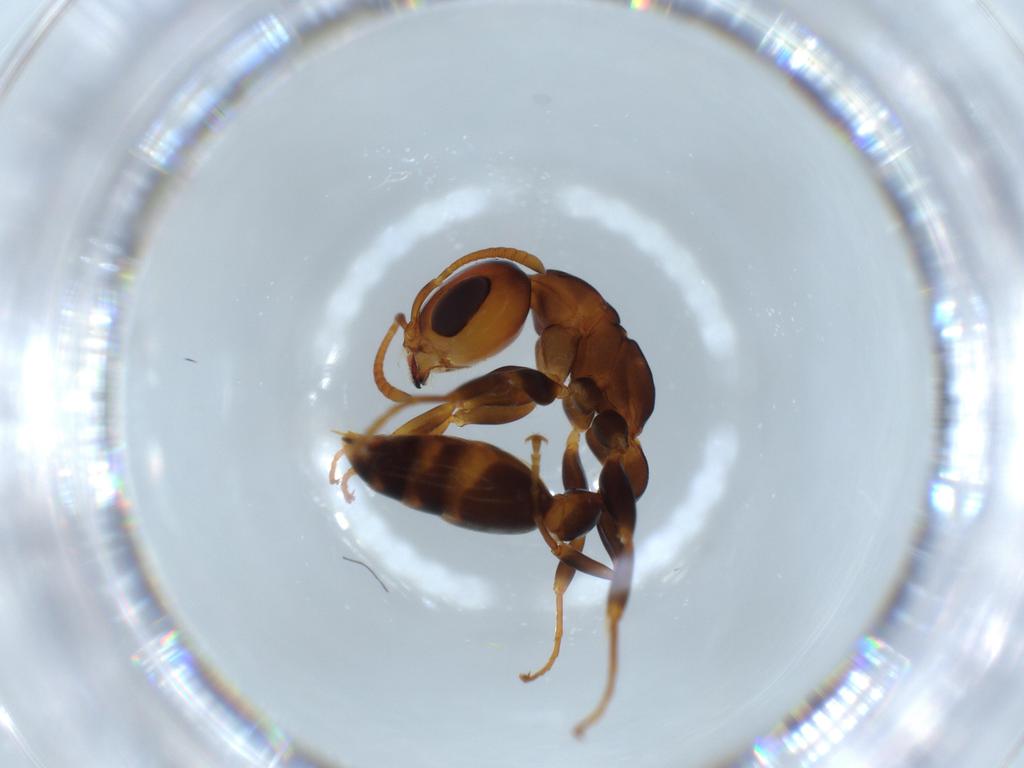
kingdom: Animalia
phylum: Arthropoda
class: Insecta
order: Hymenoptera
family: Formicidae
